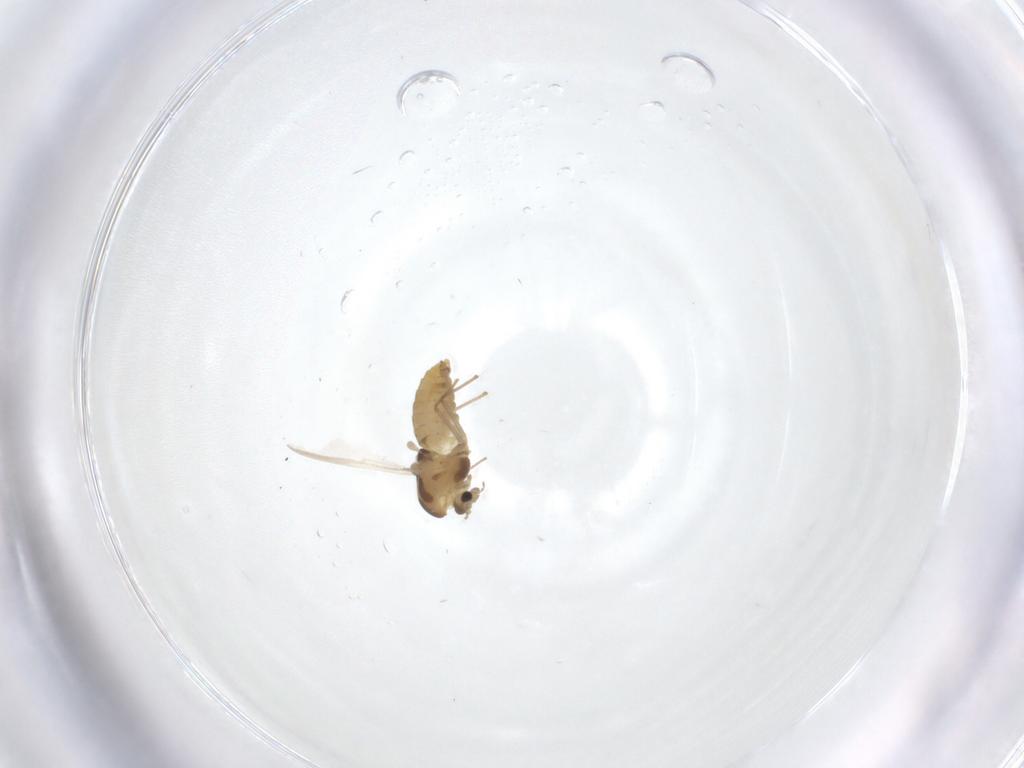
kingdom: Animalia
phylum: Arthropoda
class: Insecta
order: Diptera
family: Chironomidae
